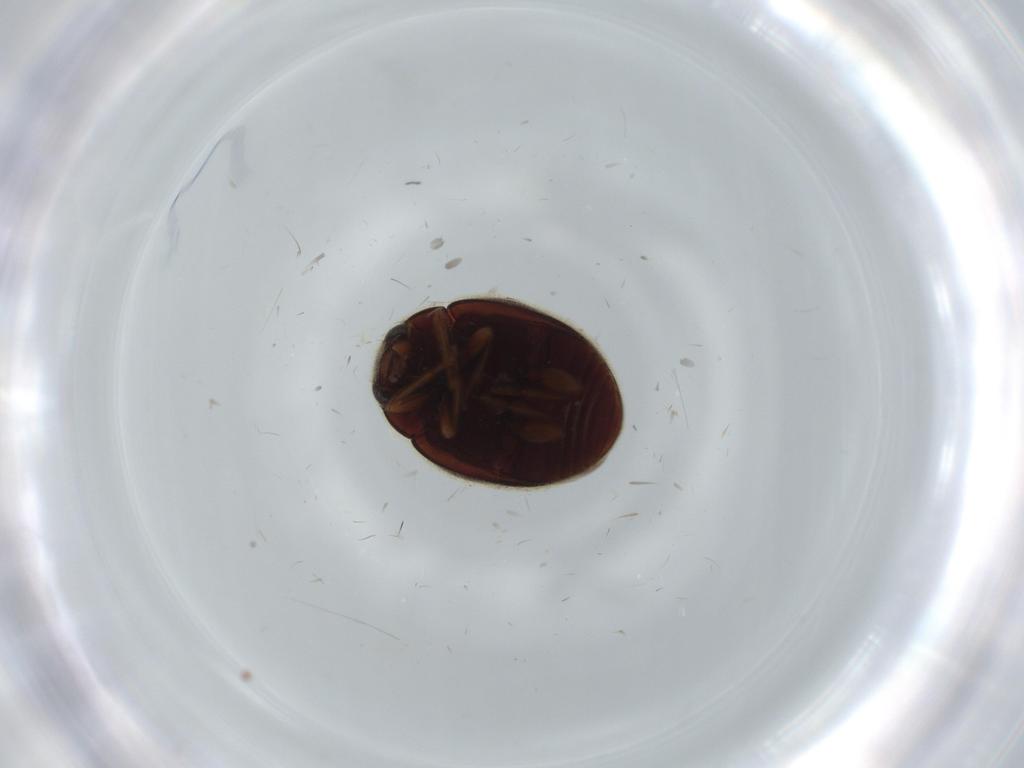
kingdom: Animalia
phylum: Arthropoda
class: Insecta
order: Coleoptera
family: Coccinellidae
